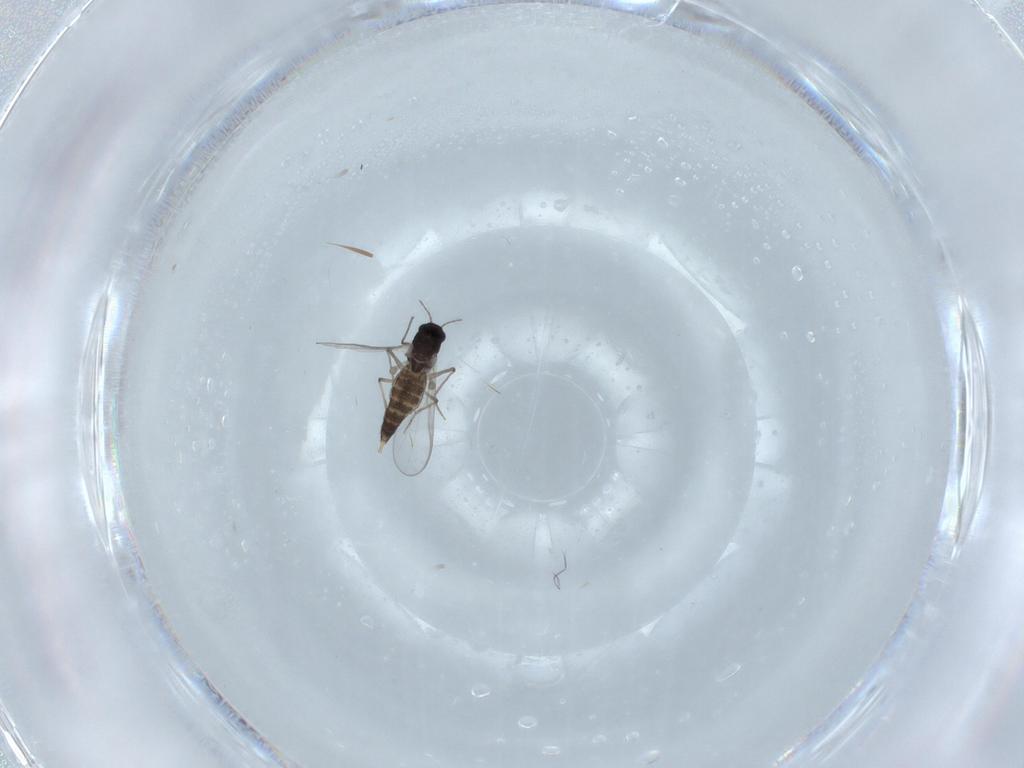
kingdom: Animalia
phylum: Arthropoda
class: Insecta
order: Diptera
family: Chironomidae
